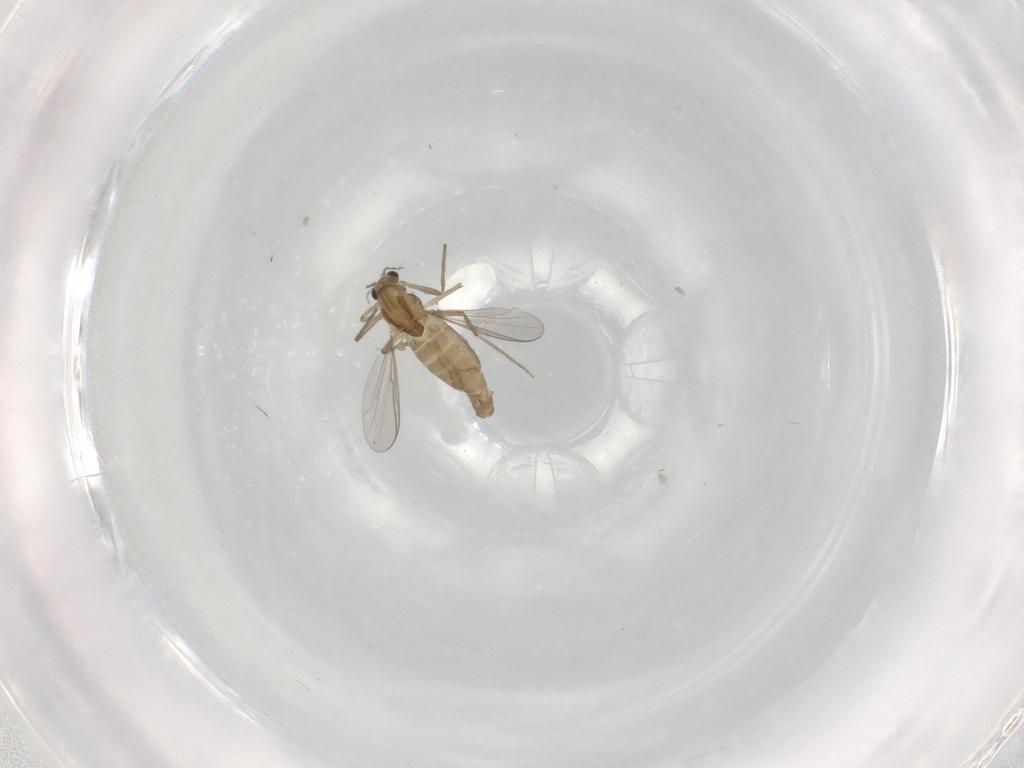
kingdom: Animalia
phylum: Arthropoda
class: Insecta
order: Diptera
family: Chironomidae
